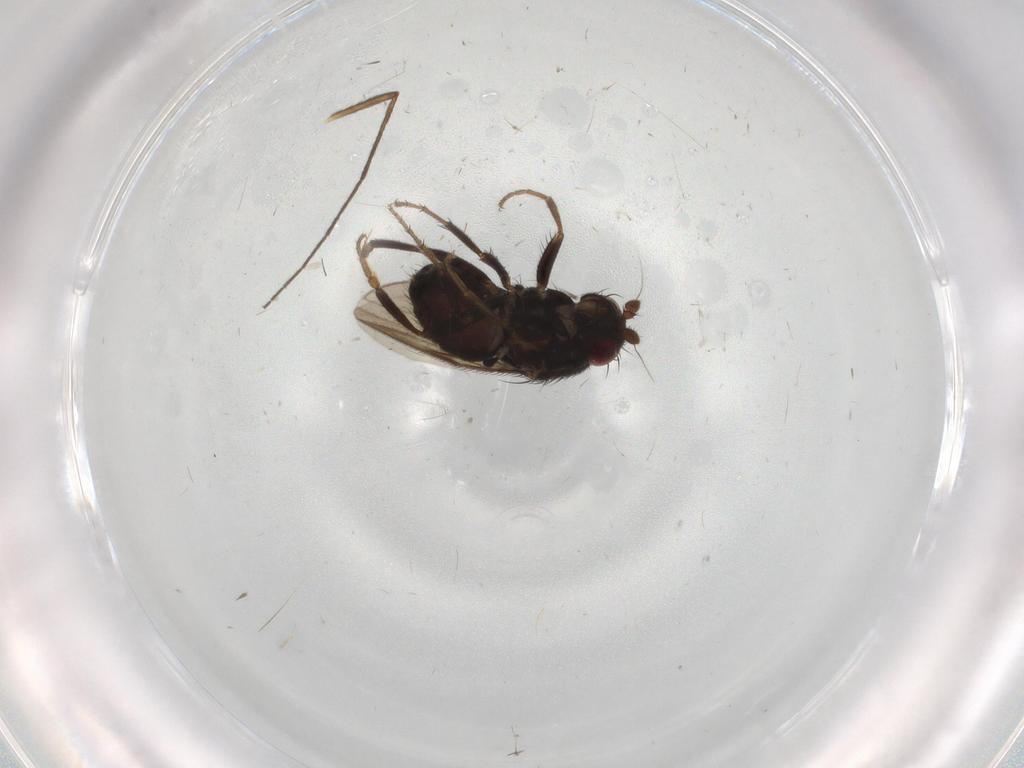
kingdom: Animalia
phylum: Arthropoda
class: Insecta
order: Diptera
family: Sphaeroceridae
